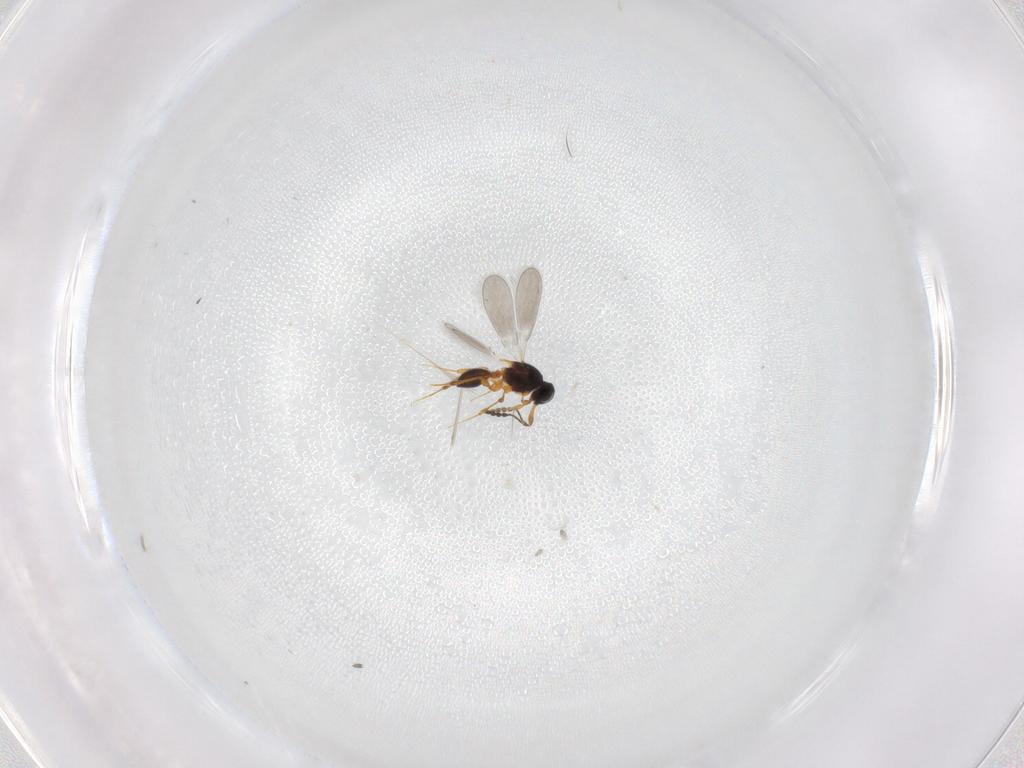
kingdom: Animalia
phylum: Arthropoda
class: Insecta
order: Hymenoptera
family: Platygastridae
